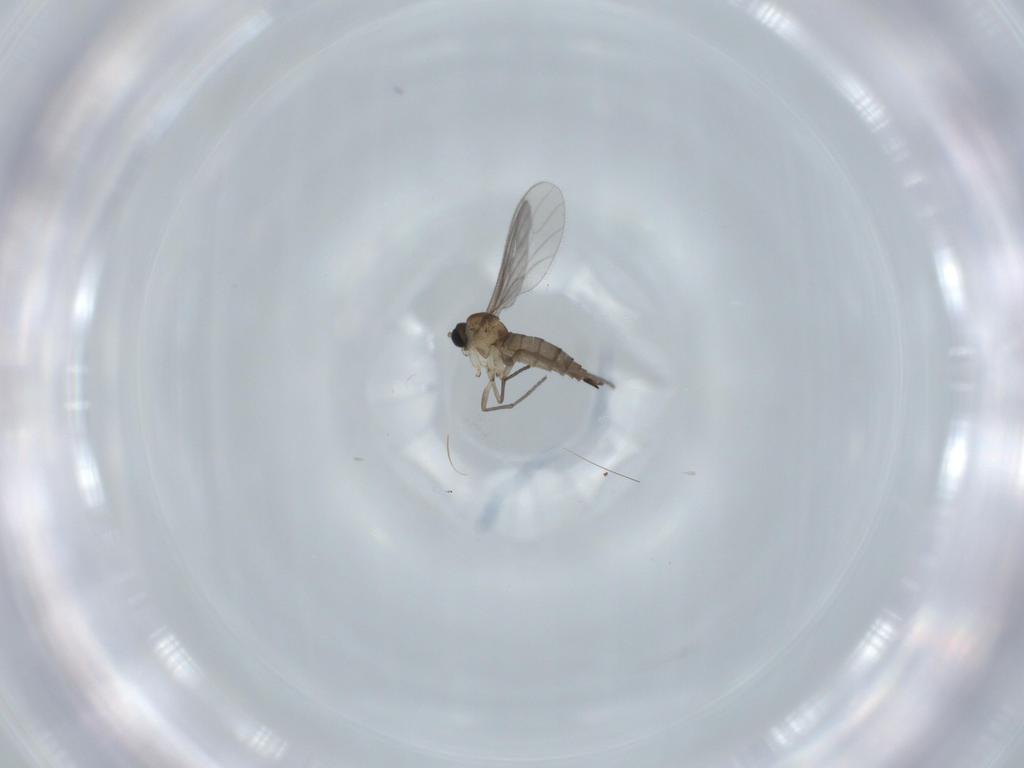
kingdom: Animalia
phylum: Arthropoda
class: Insecta
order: Diptera
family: Sciaridae
